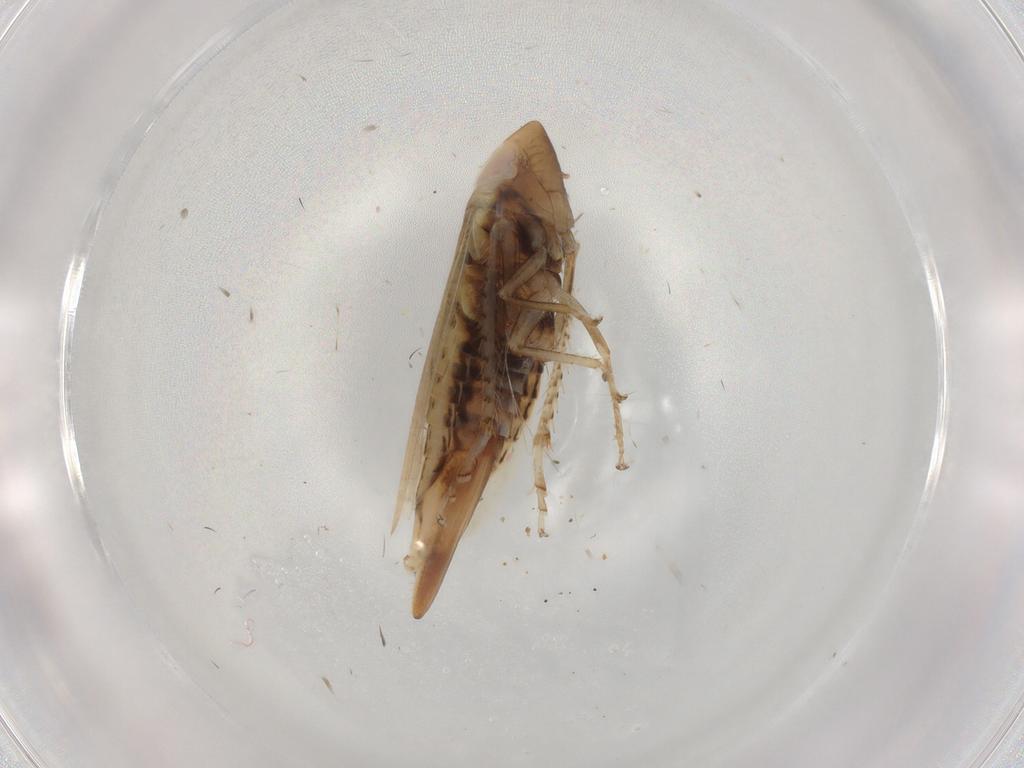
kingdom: Animalia
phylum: Arthropoda
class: Insecta
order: Hemiptera
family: Cicadellidae
